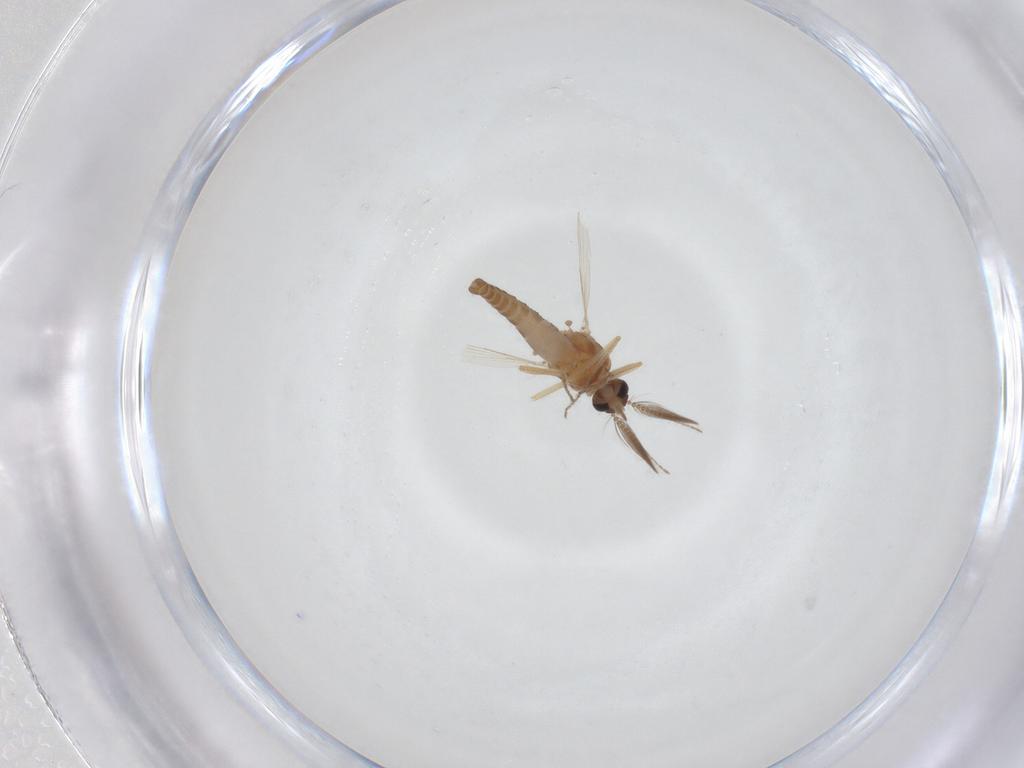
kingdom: Animalia
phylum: Arthropoda
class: Insecta
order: Diptera
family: Ceratopogonidae
